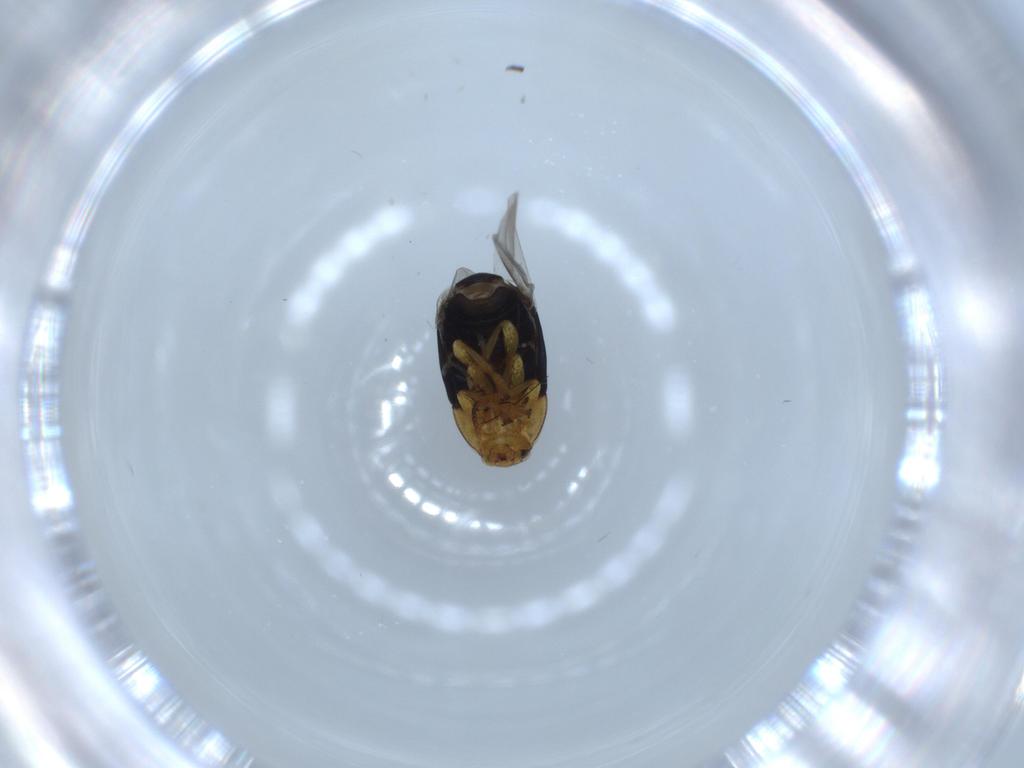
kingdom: Animalia
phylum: Arthropoda
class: Insecta
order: Coleoptera
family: Chrysomelidae
